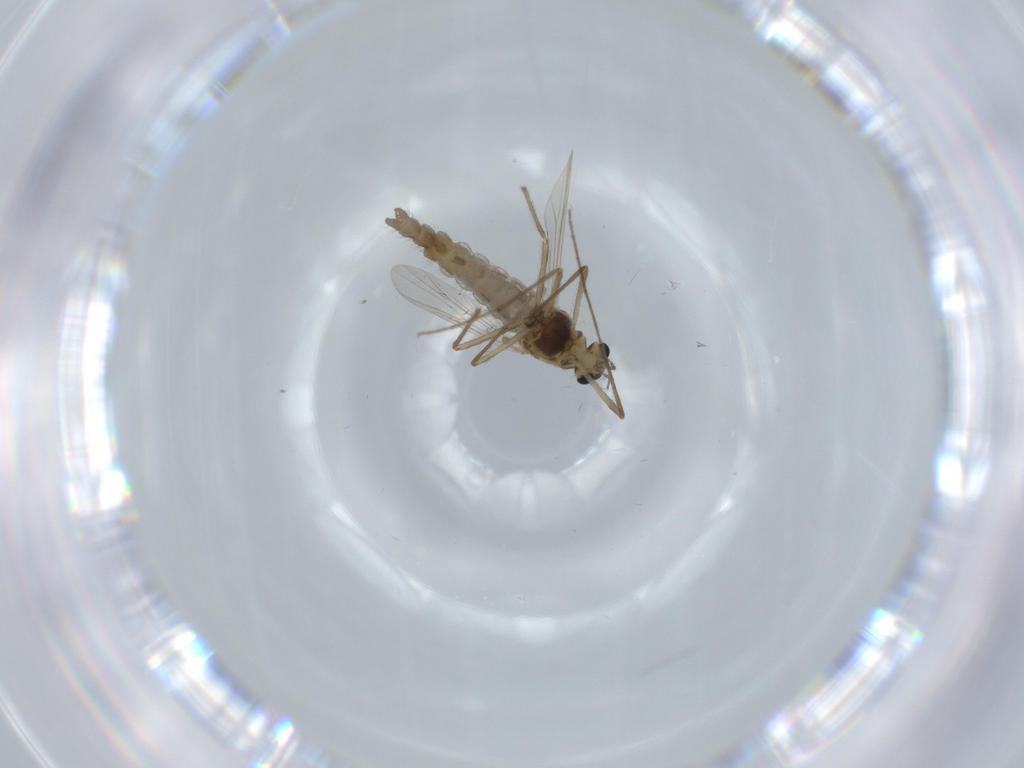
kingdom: Animalia
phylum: Arthropoda
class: Insecta
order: Diptera
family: Chironomidae
